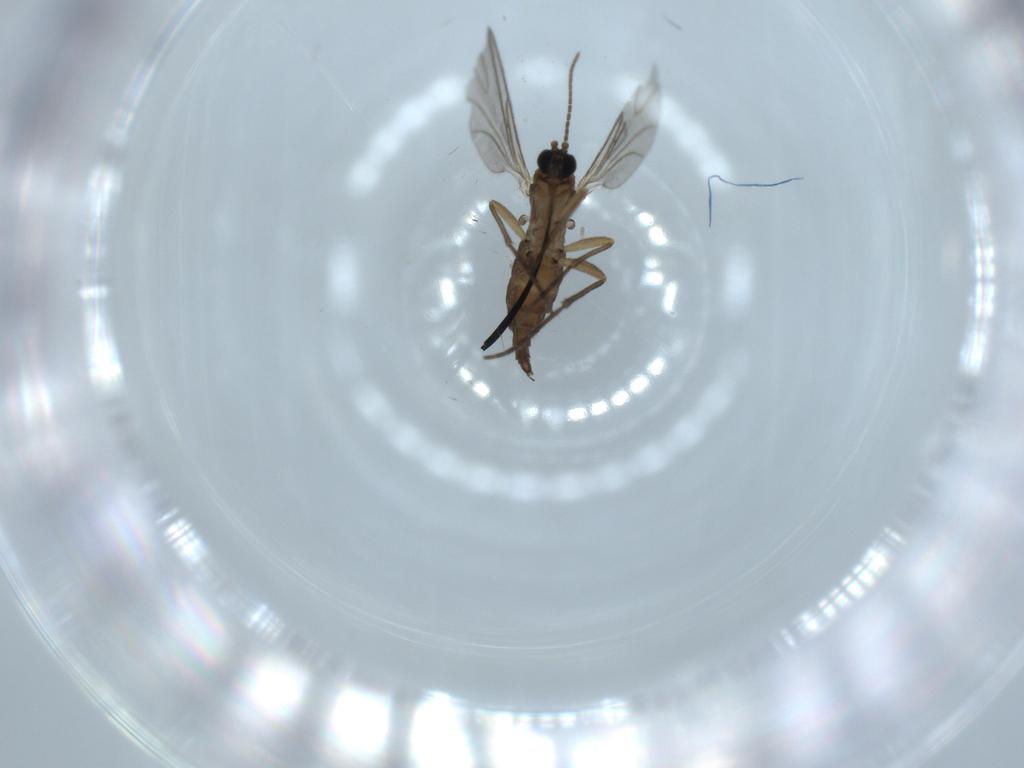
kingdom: Animalia
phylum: Arthropoda
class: Insecta
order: Diptera
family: Sciaridae
